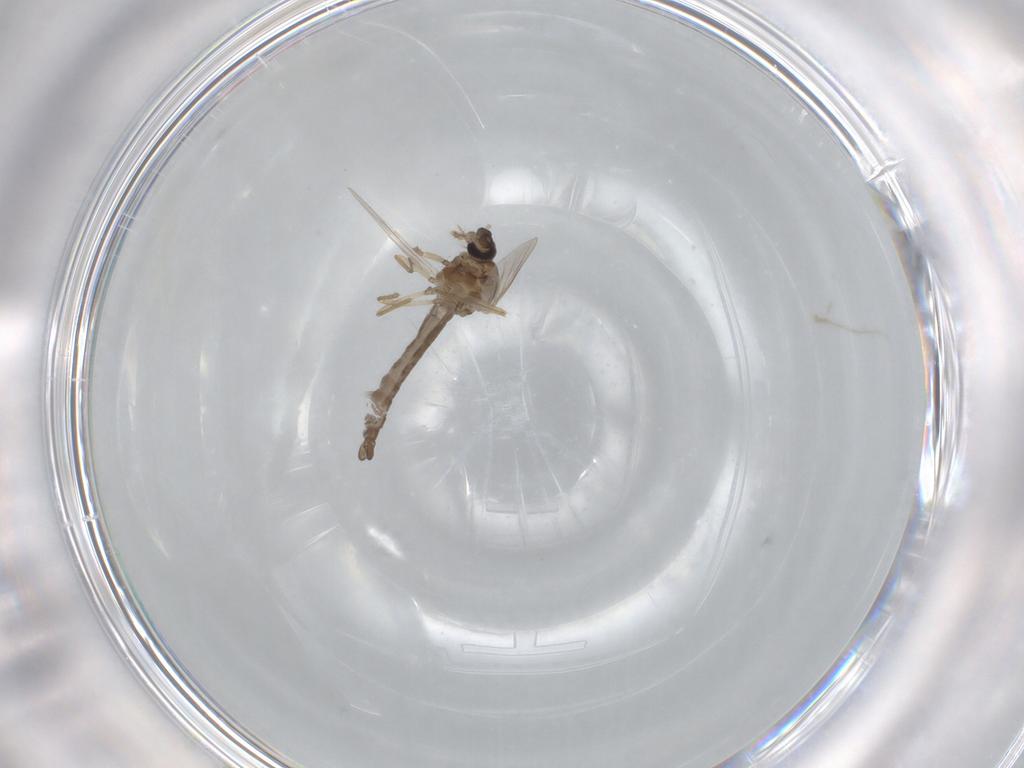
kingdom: Animalia
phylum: Arthropoda
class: Insecta
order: Diptera
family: Ceratopogonidae
